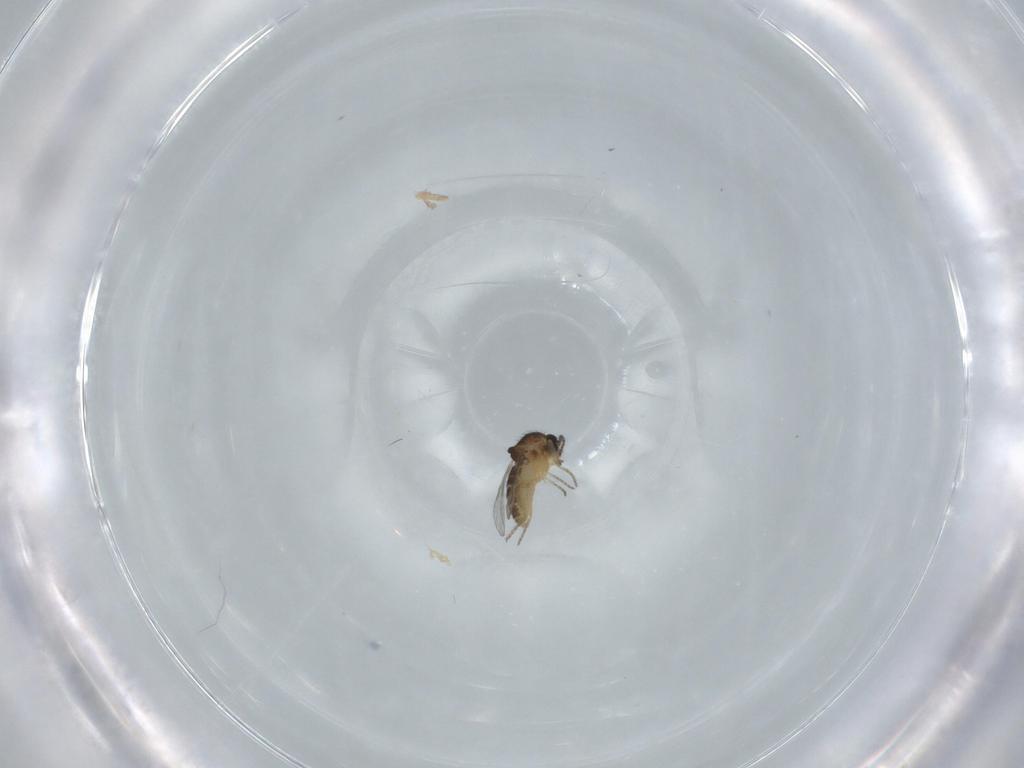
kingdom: Animalia
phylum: Arthropoda
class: Insecta
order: Diptera
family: Ceratopogonidae
